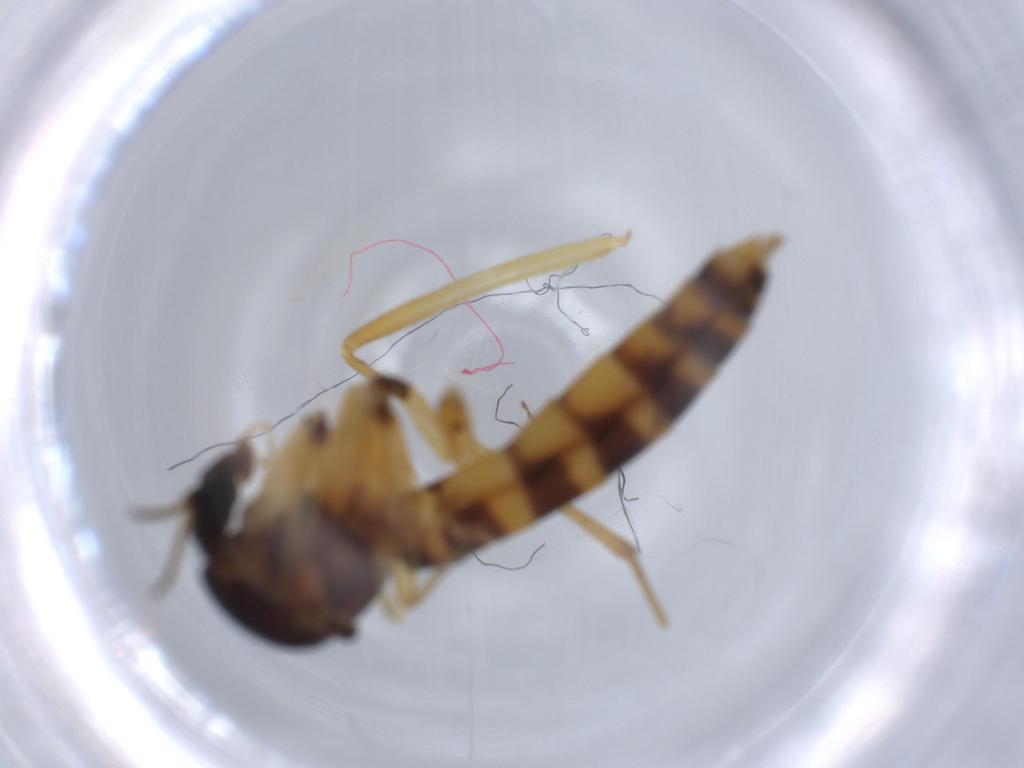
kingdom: Animalia
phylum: Arthropoda
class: Insecta
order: Diptera
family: Mycetophilidae
